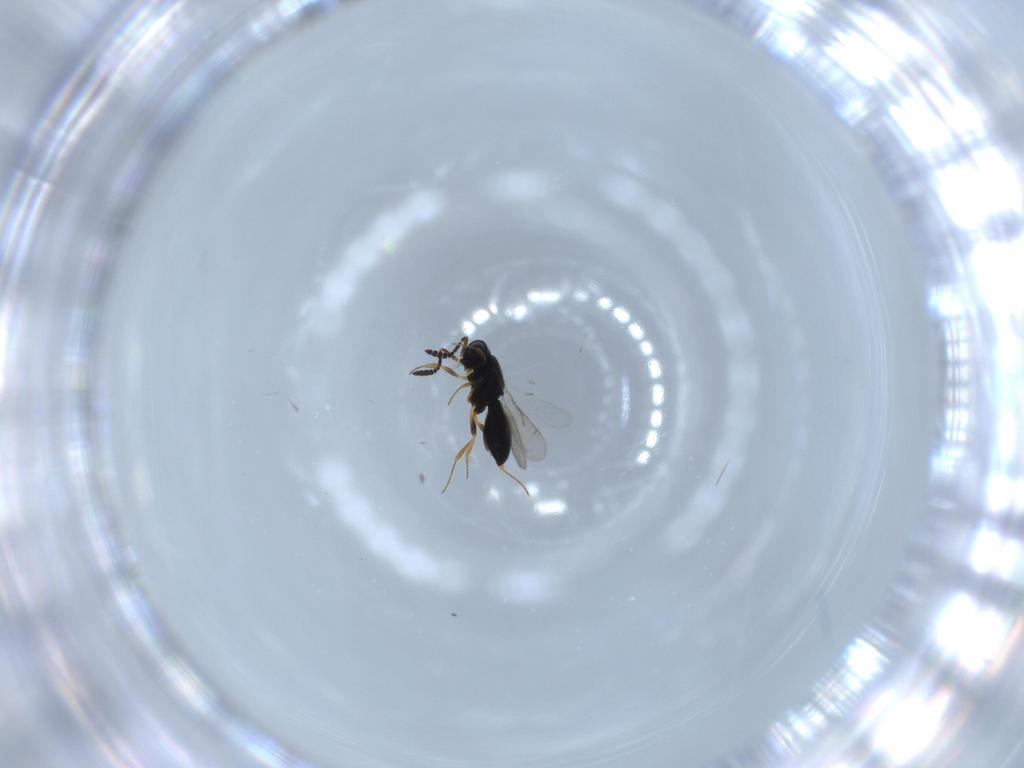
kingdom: Animalia
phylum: Arthropoda
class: Insecta
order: Hymenoptera
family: Scelionidae
